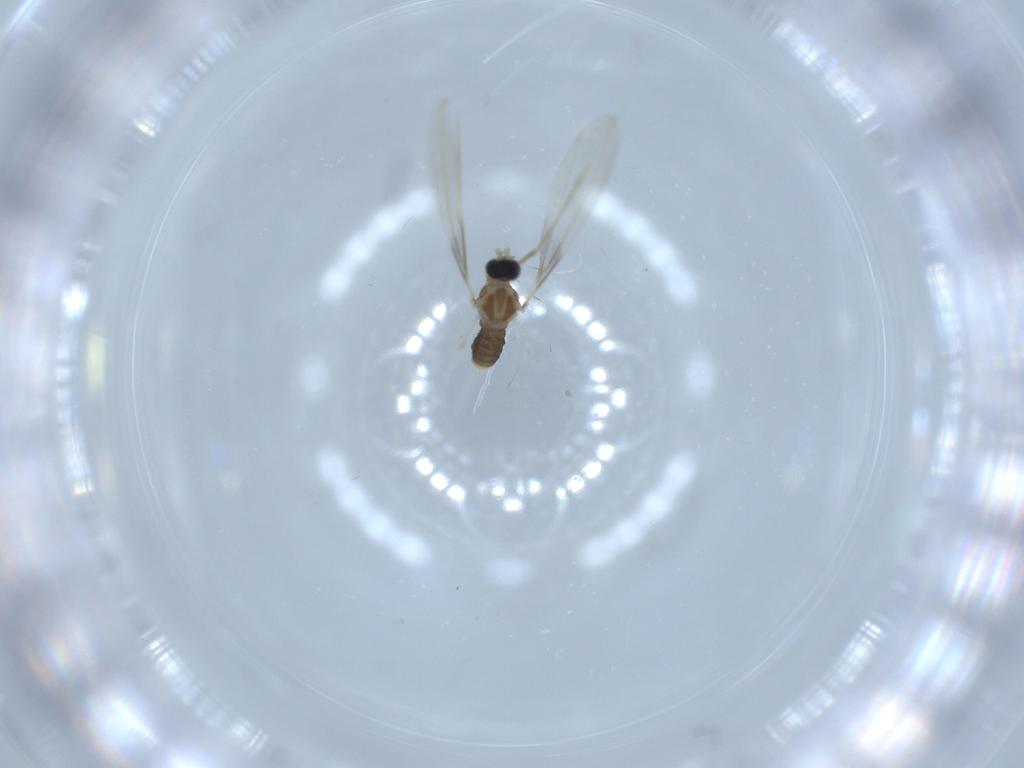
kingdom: Animalia
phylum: Arthropoda
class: Insecta
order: Diptera
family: Cecidomyiidae
